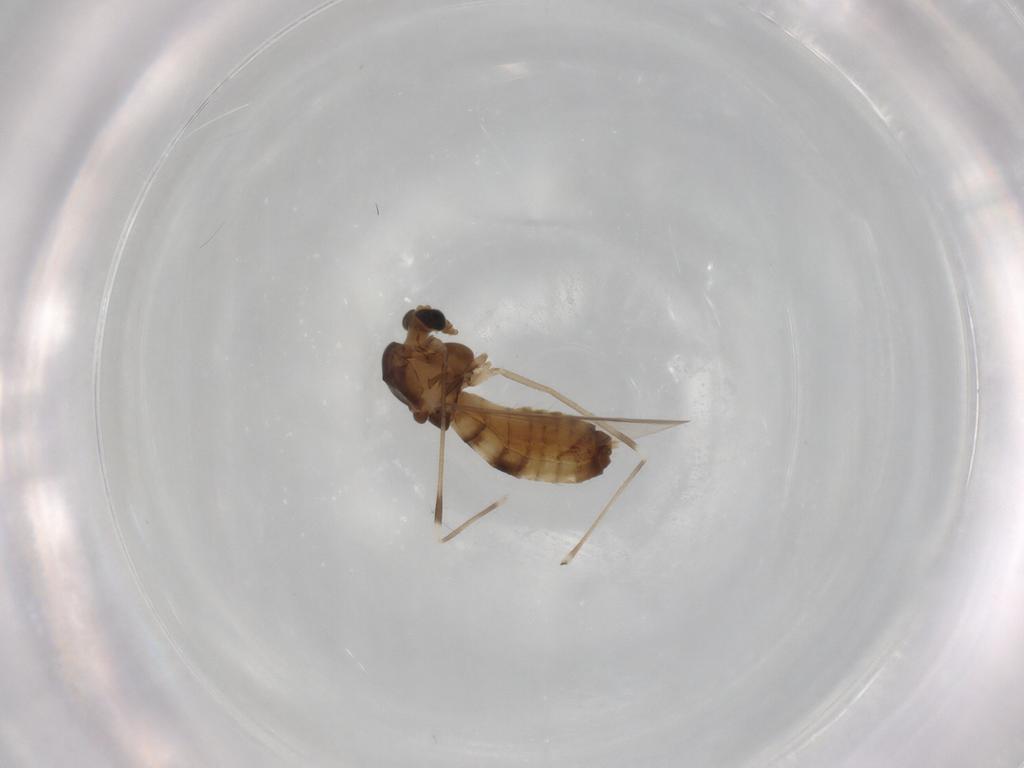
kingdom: Animalia
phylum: Arthropoda
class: Insecta
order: Diptera
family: Chironomidae
